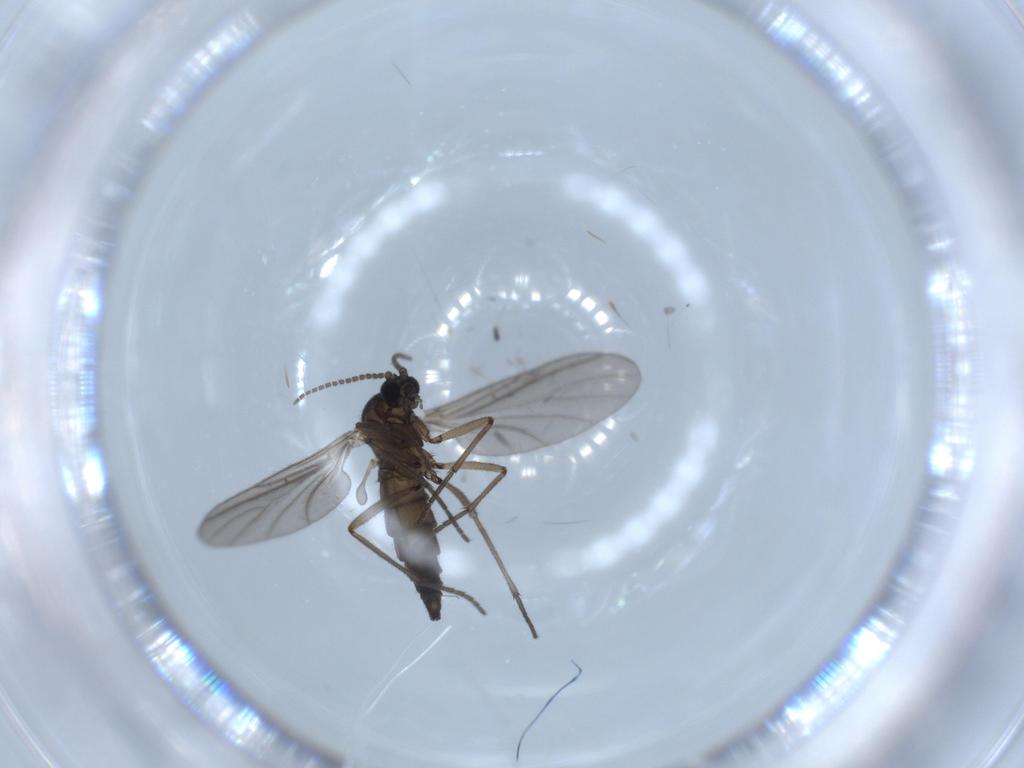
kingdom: Animalia
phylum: Arthropoda
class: Insecta
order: Diptera
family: Sciaridae
